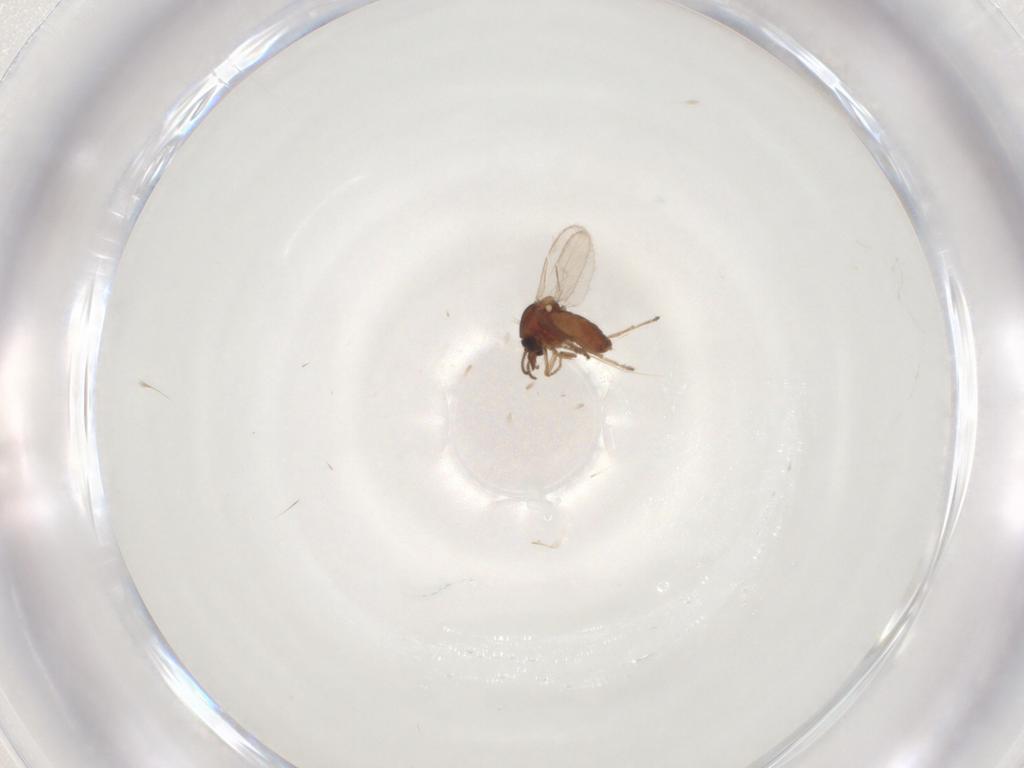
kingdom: Animalia
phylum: Arthropoda
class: Insecta
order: Diptera
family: Ceratopogonidae
